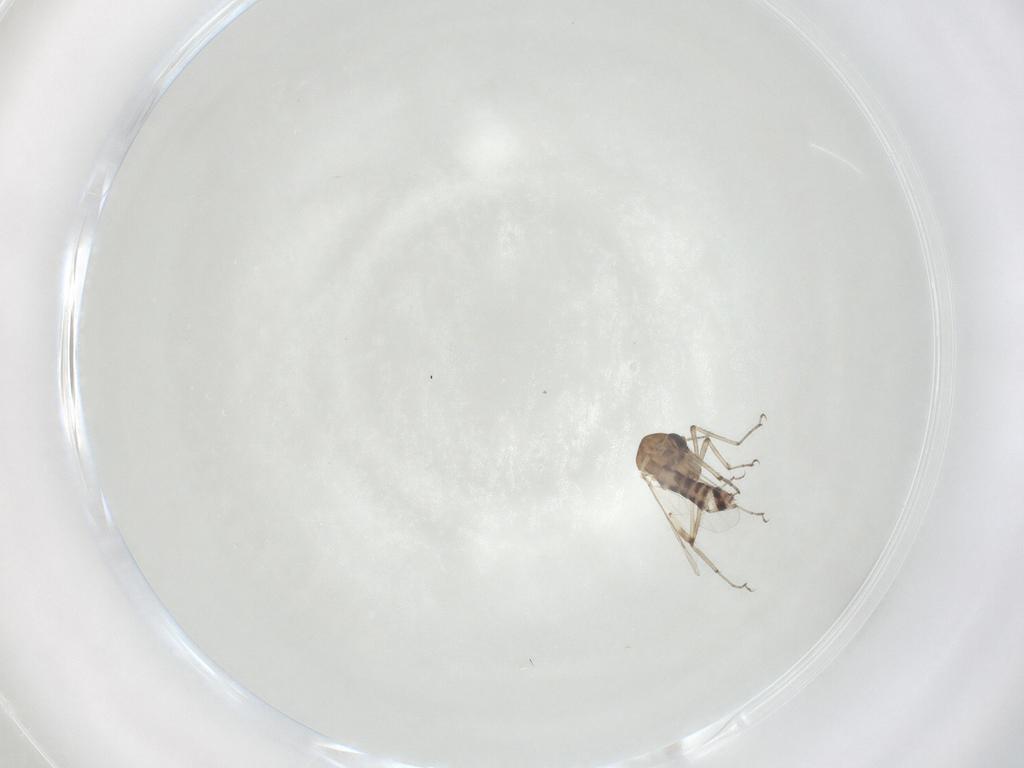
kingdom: Animalia
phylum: Arthropoda
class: Insecta
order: Diptera
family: Ceratopogonidae
